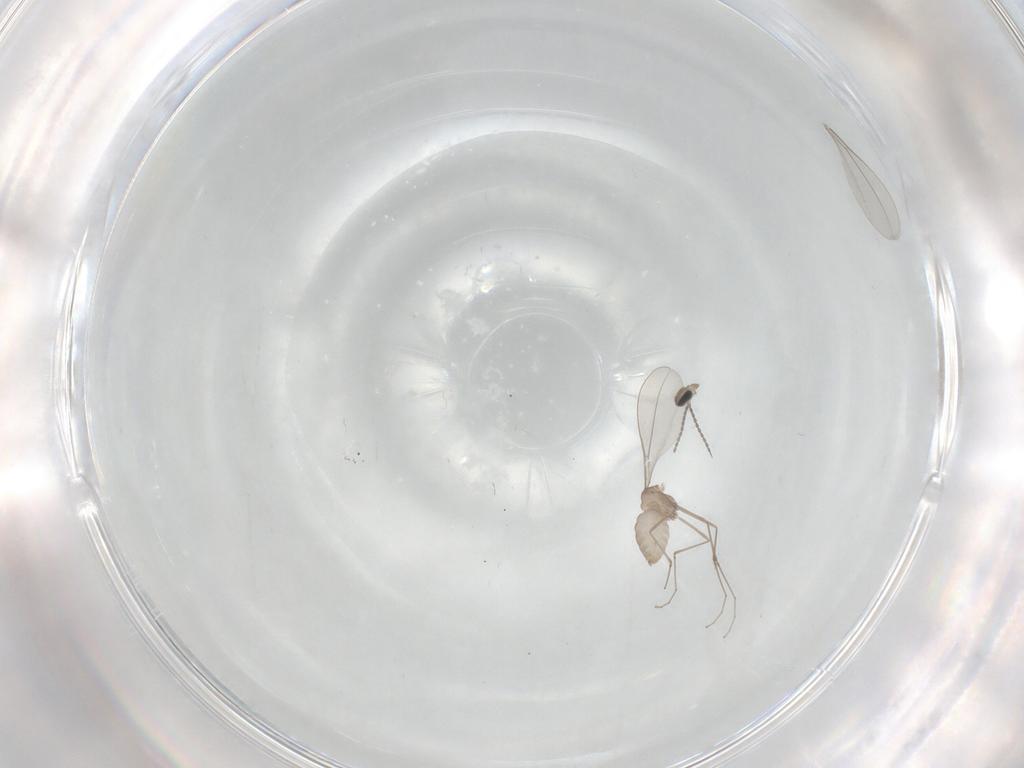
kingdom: Animalia
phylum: Arthropoda
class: Insecta
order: Diptera
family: Cecidomyiidae
